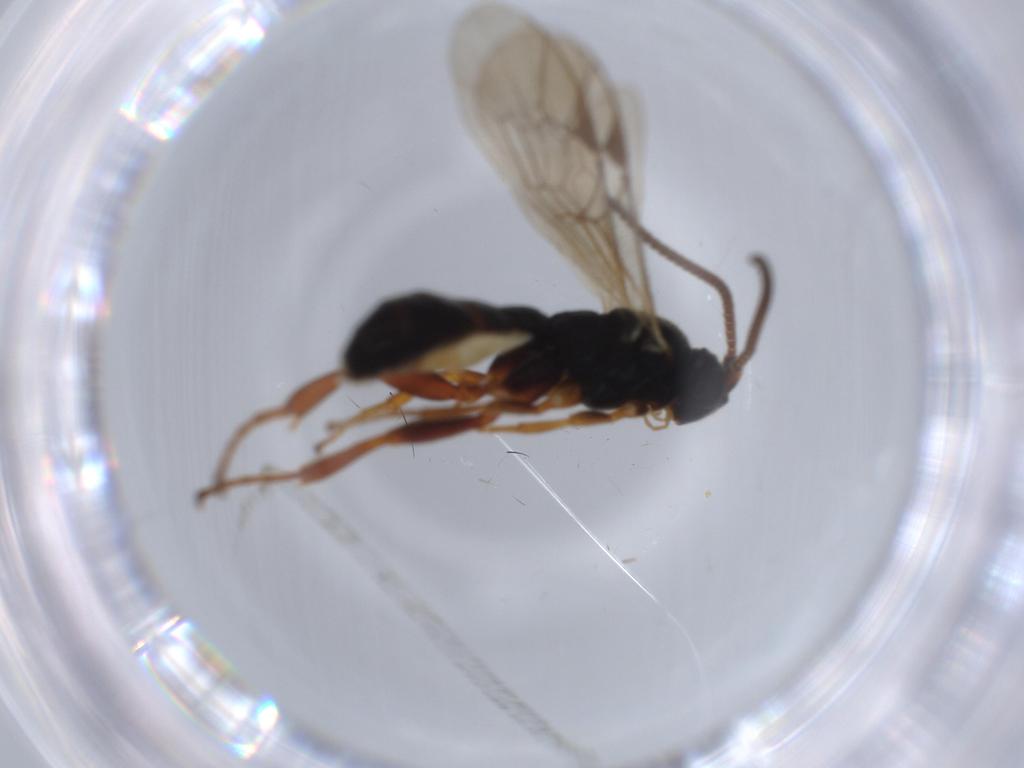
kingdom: Animalia
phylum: Arthropoda
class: Insecta
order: Hymenoptera
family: Ichneumonidae
